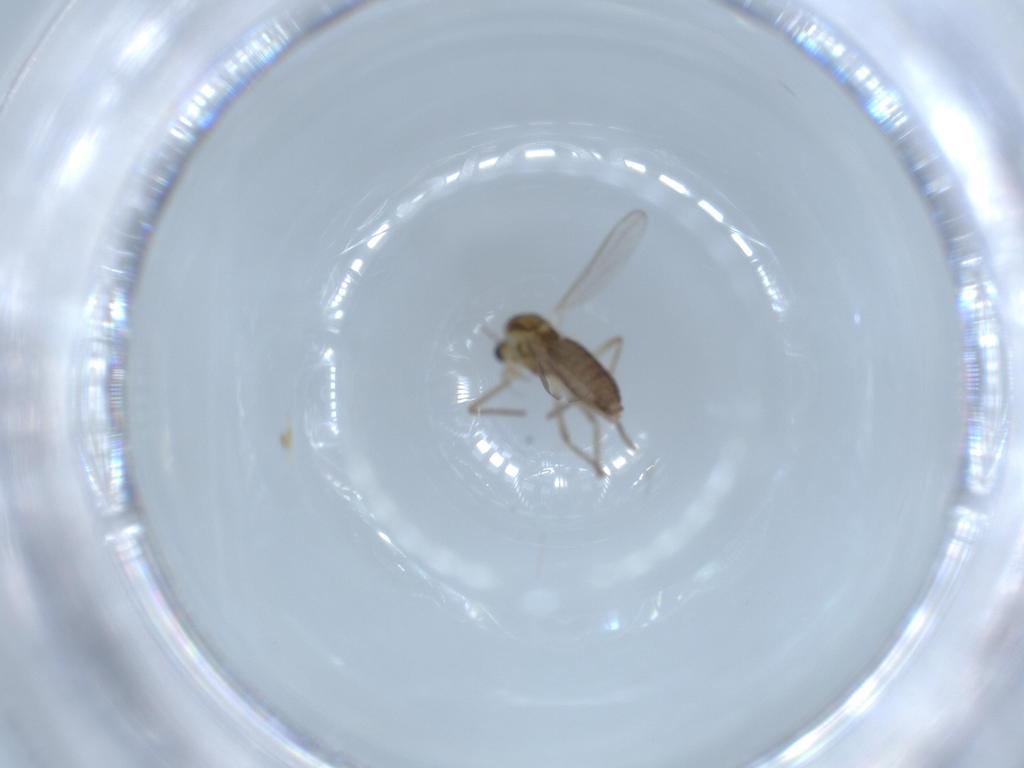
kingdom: Animalia
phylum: Arthropoda
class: Insecta
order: Diptera
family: Chironomidae
